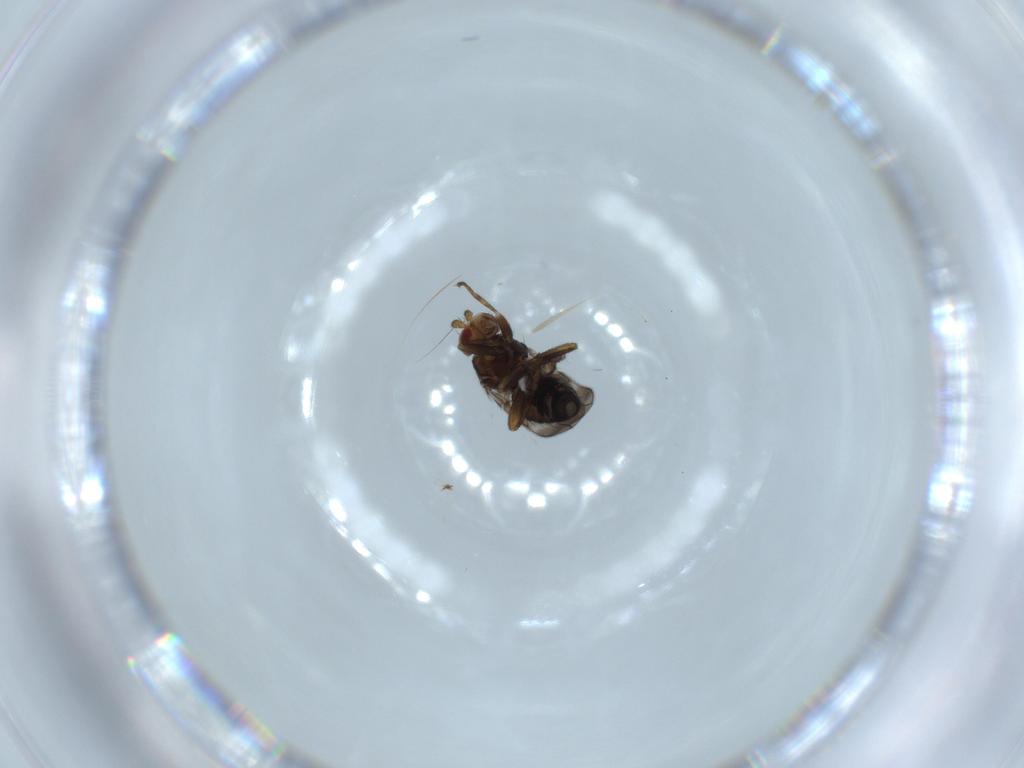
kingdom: Animalia
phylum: Arthropoda
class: Insecta
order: Diptera
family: Sphaeroceridae
